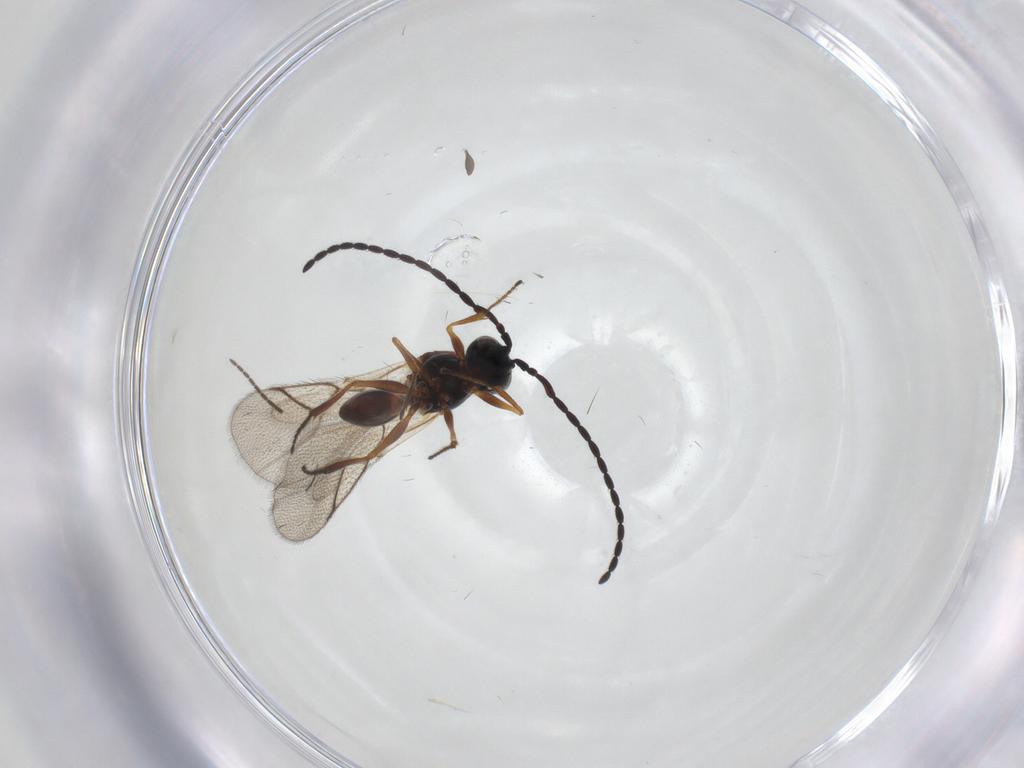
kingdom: Animalia
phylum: Arthropoda
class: Insecta
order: Hymenoptera
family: Figitidae
